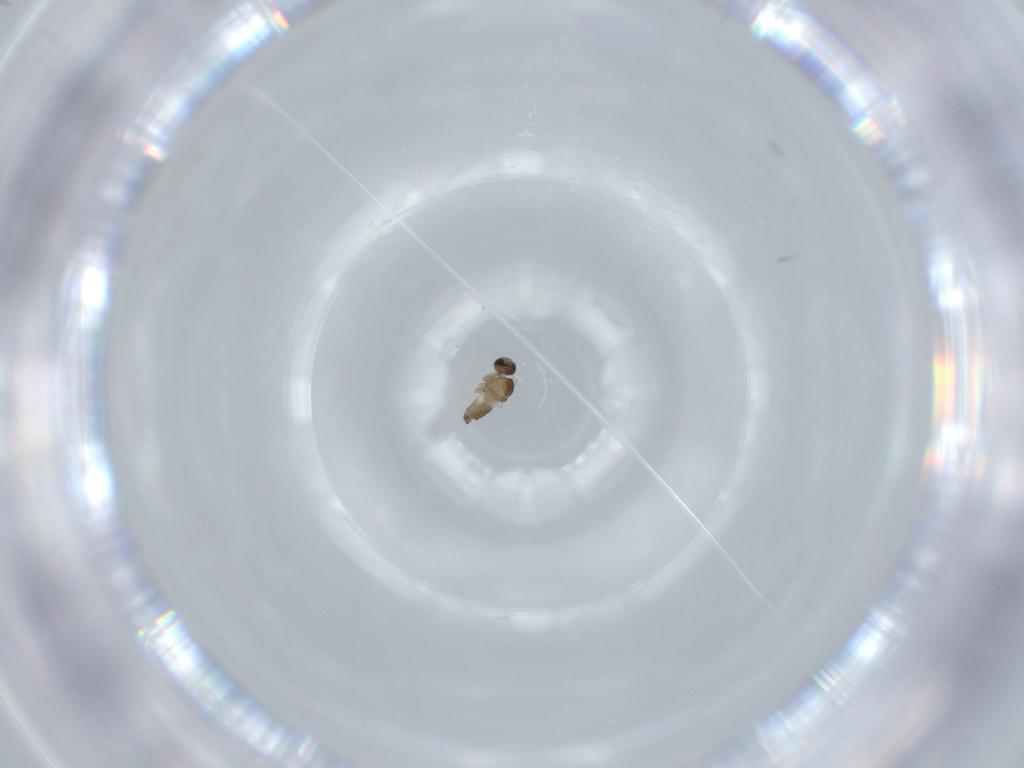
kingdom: Animalia
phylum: Arthropoda
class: Insecta
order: Diptera
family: Cecidomyiidae
